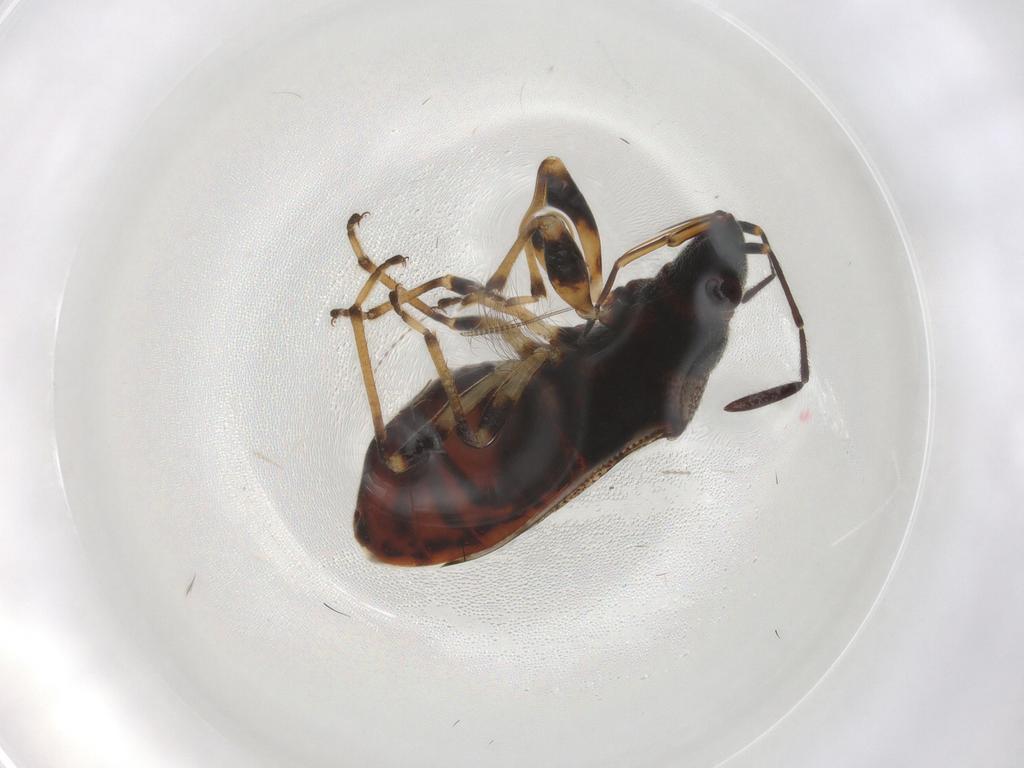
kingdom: Animalia
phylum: Arthropoda
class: Insecta
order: Hemiptera
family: Rhyparochromidae
